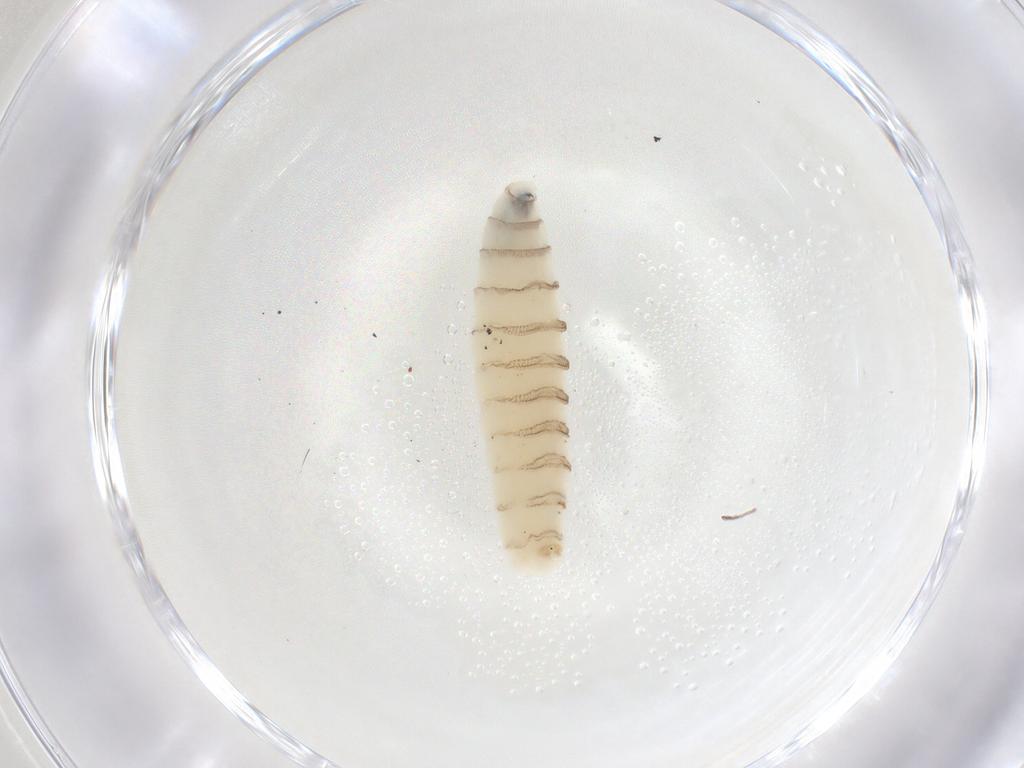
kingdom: Animalia
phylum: Arthropoda
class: Insecta
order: Diptera
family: Sarcophagidae
